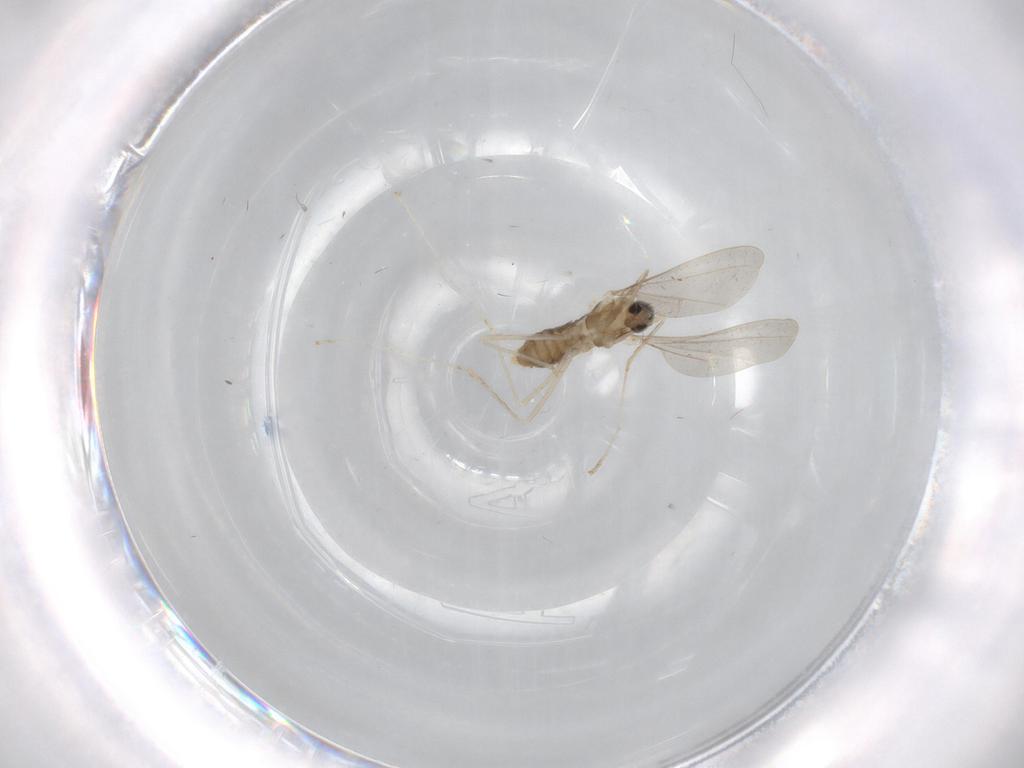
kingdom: Animalia
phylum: Arthropoda
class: Insecta
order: Diptera
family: Cecidomyiidae
